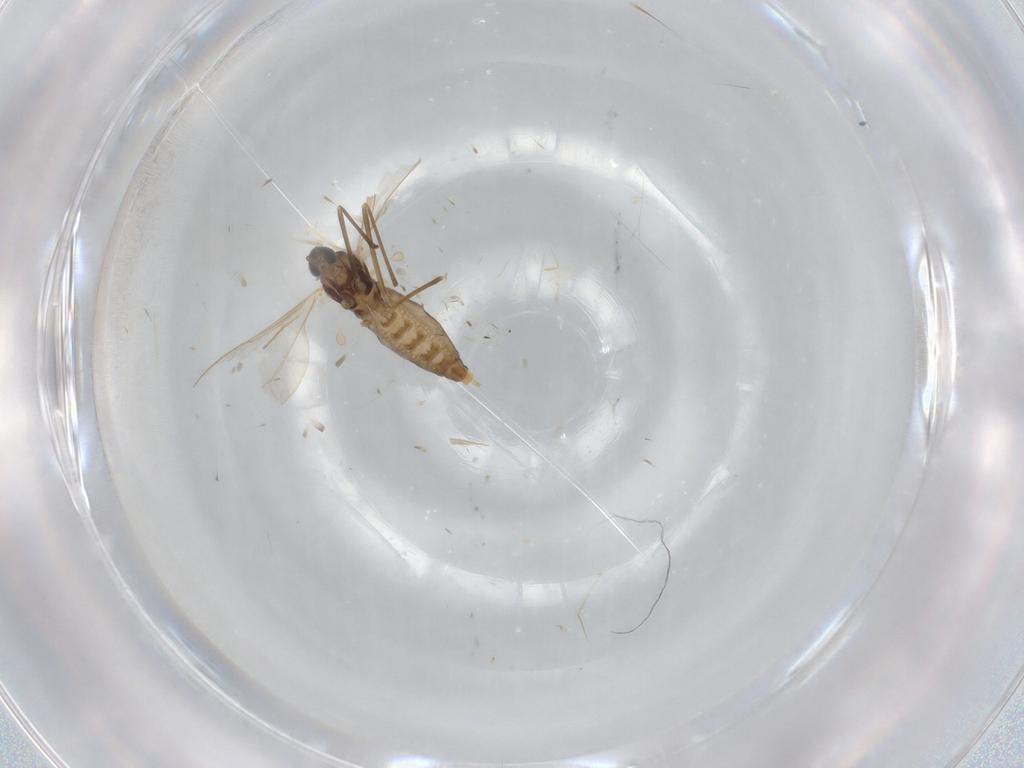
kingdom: Animalia
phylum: Arthropoda
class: Insecta
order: Diptera
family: Cecidomyiidae
